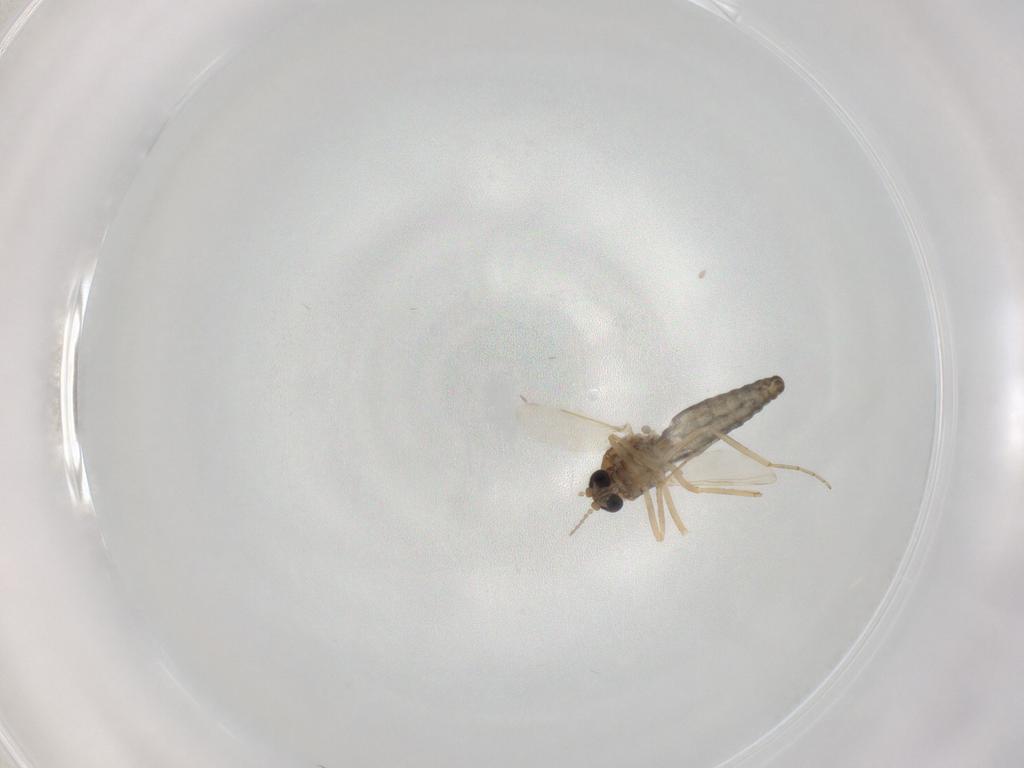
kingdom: Animalia
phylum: Arthropoda
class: Insecta
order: Diptera
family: Ceratopogonidae
